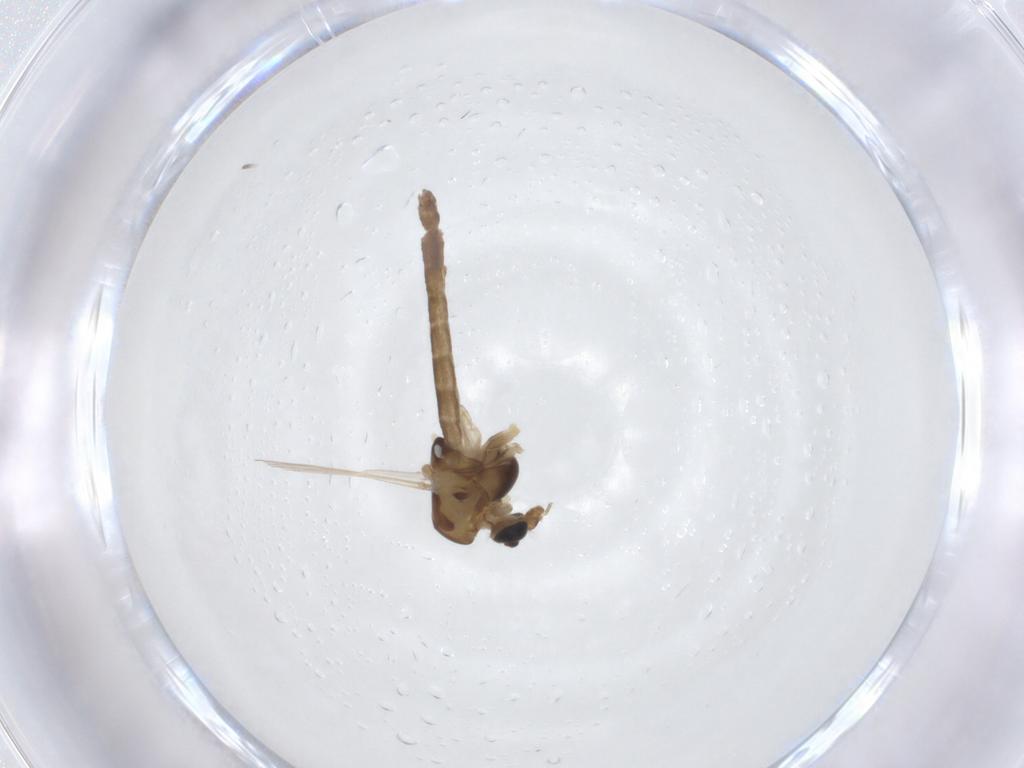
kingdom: Animalia
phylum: Arthropoda
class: Insecta
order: Diptera
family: Chironomidae
